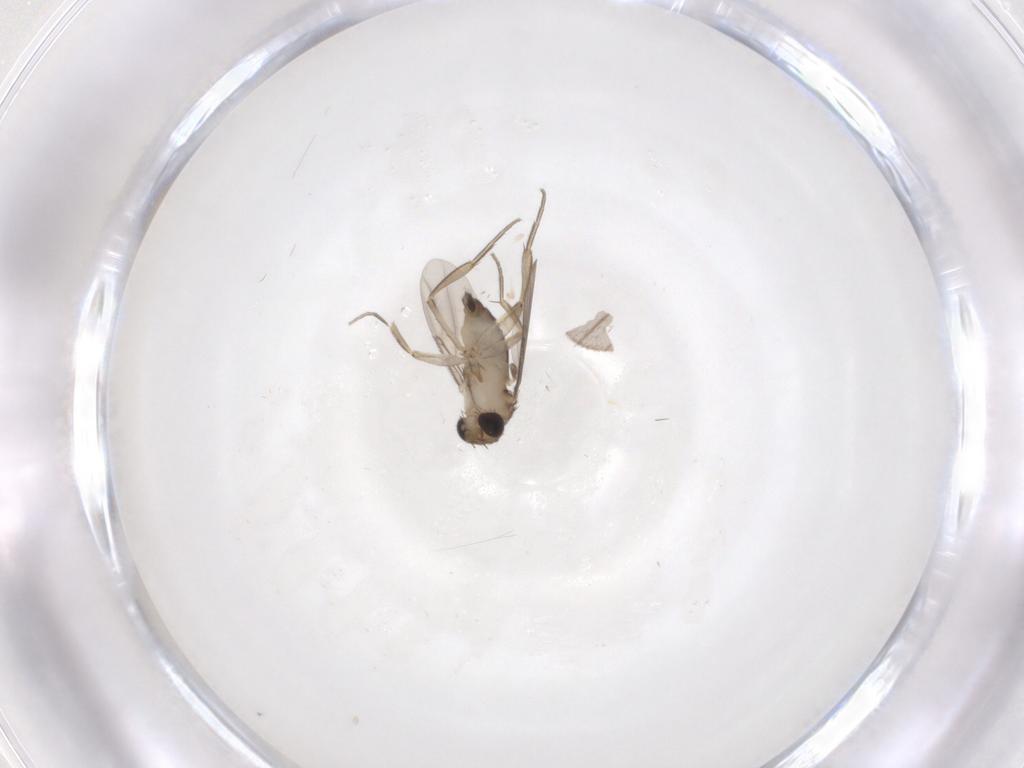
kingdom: Animalia
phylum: Arthropoda
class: Insecta
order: Diptera
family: Phoridae
